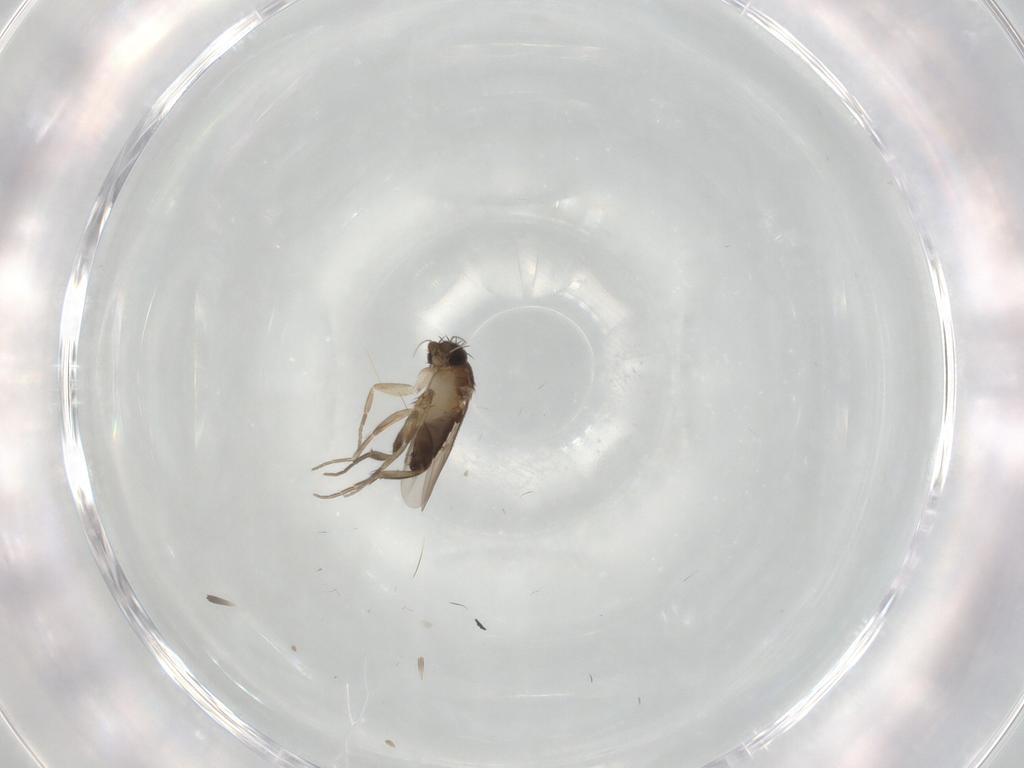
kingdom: Animalia
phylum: Arthropoda
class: Insecta
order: Diptera
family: Phoridae
